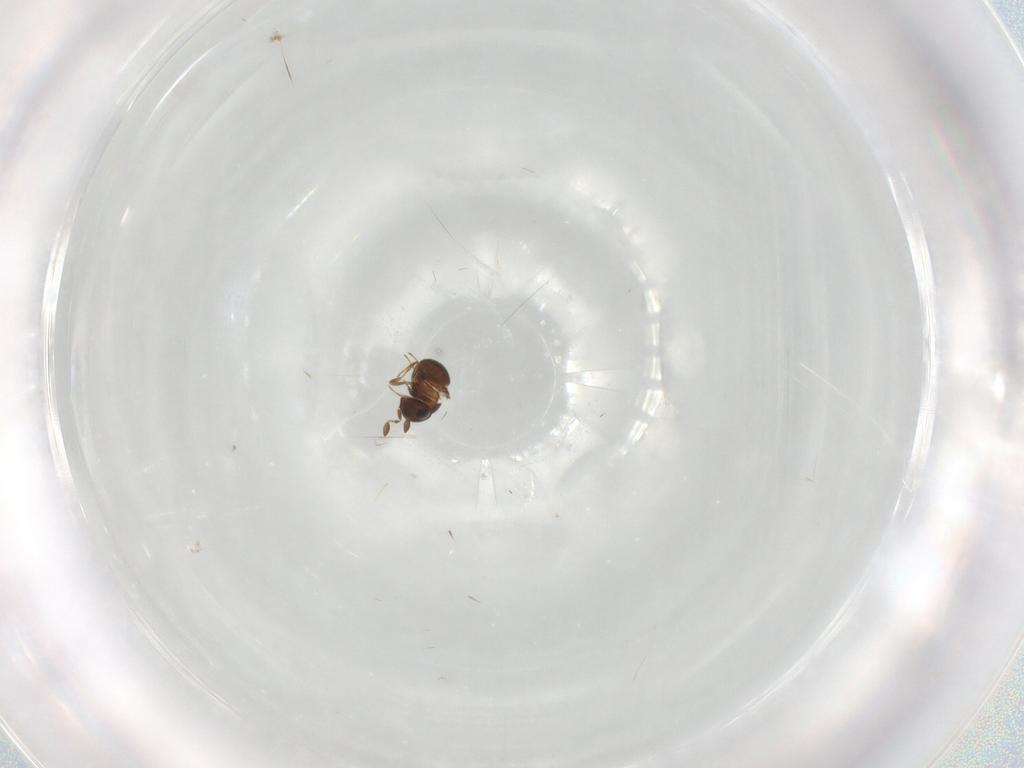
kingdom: Animalia
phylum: Arthropoda
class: Insecta
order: Hymenoptera
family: Scelionidae
